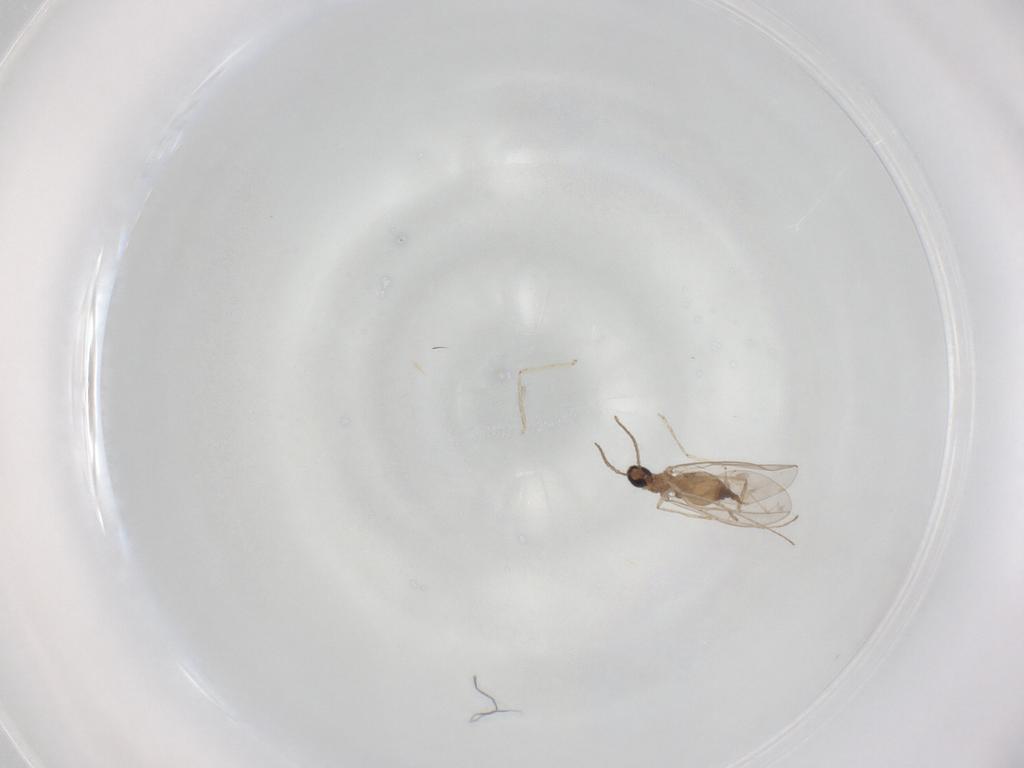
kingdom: Animalia
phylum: Arthropoda
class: Insecta
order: Diptera
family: Cecidomyiidae
